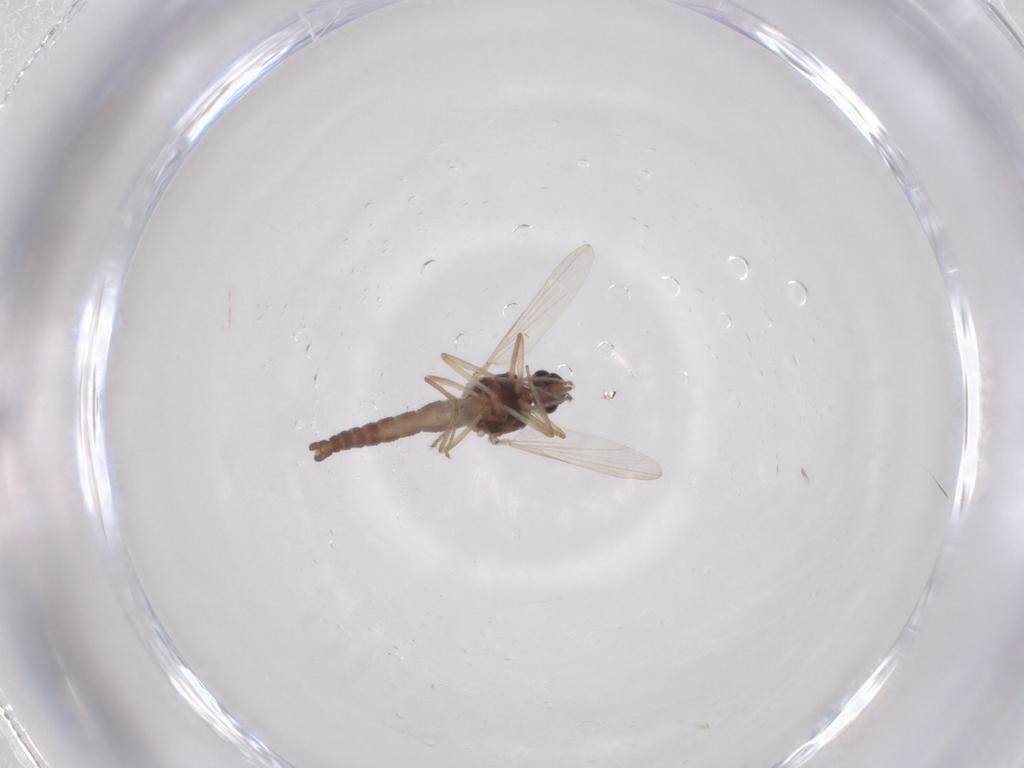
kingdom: Animalia
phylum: Arthropoda
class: Insecta
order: Diptera
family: Ceratopogonidae
